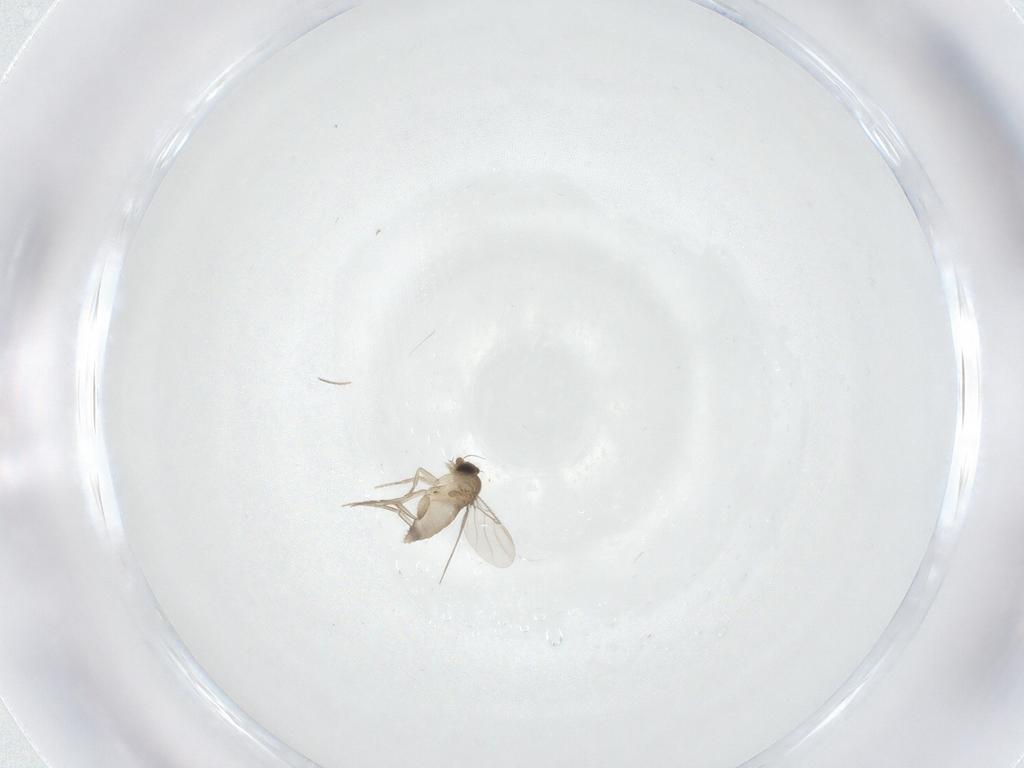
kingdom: Animalia
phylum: Arthropoda
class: Insecta
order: Diptera
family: Phoridae
